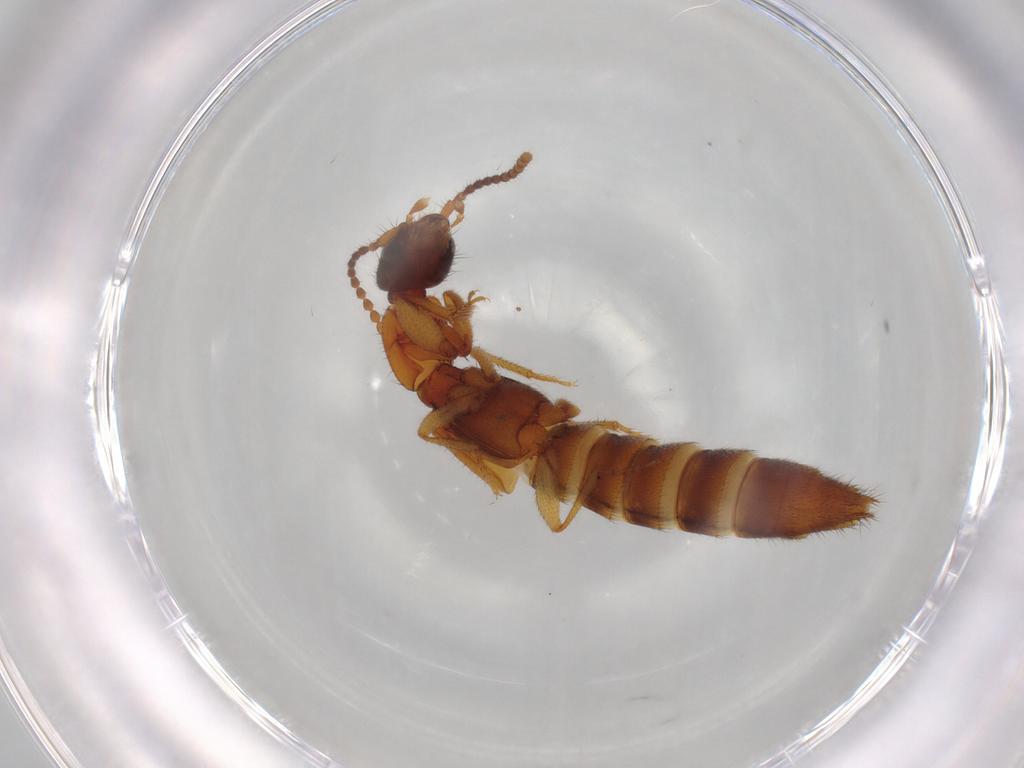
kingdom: Animalia
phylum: Arthropoda
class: Insecta
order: Coleoptera
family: Staphylinidae
